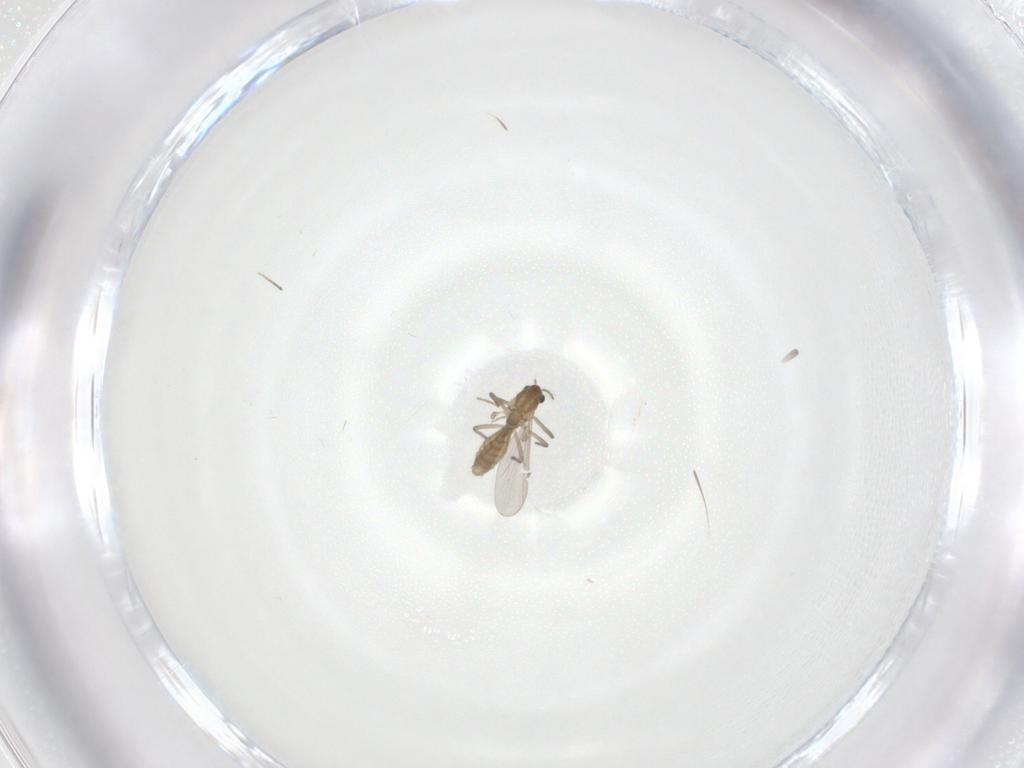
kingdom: Animalia
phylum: Arthropoda
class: Insecta
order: Diptera
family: Chironomidae
